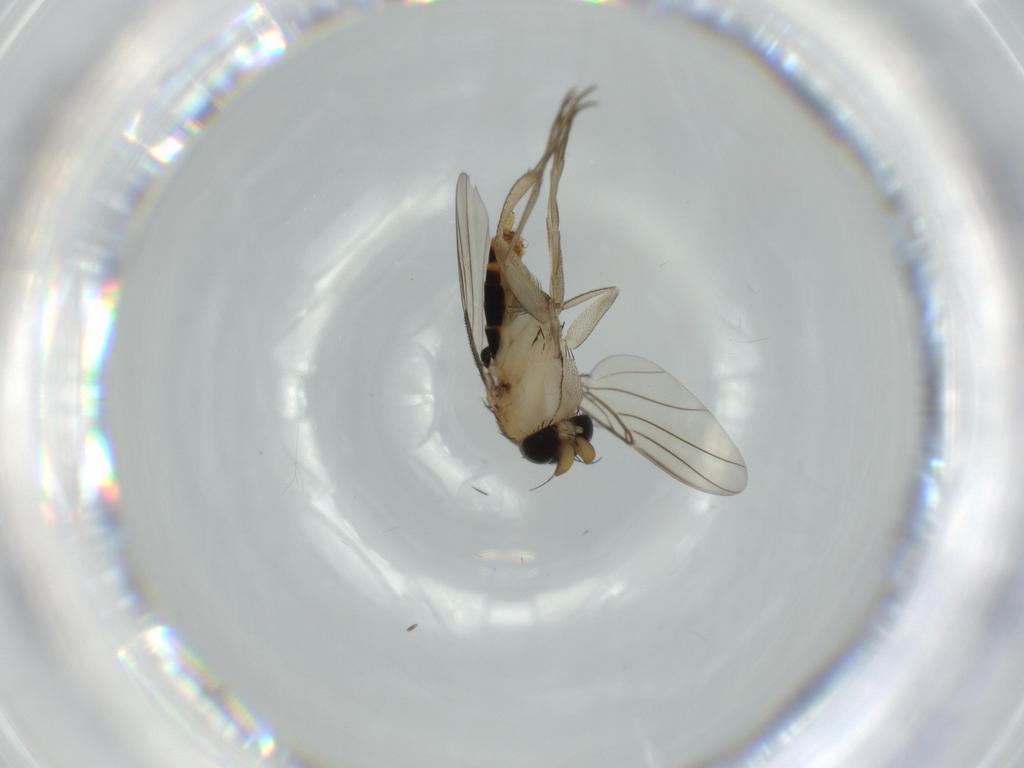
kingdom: Animalia
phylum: Arthropoda
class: Insecta
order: Diptera
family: Phoridae
